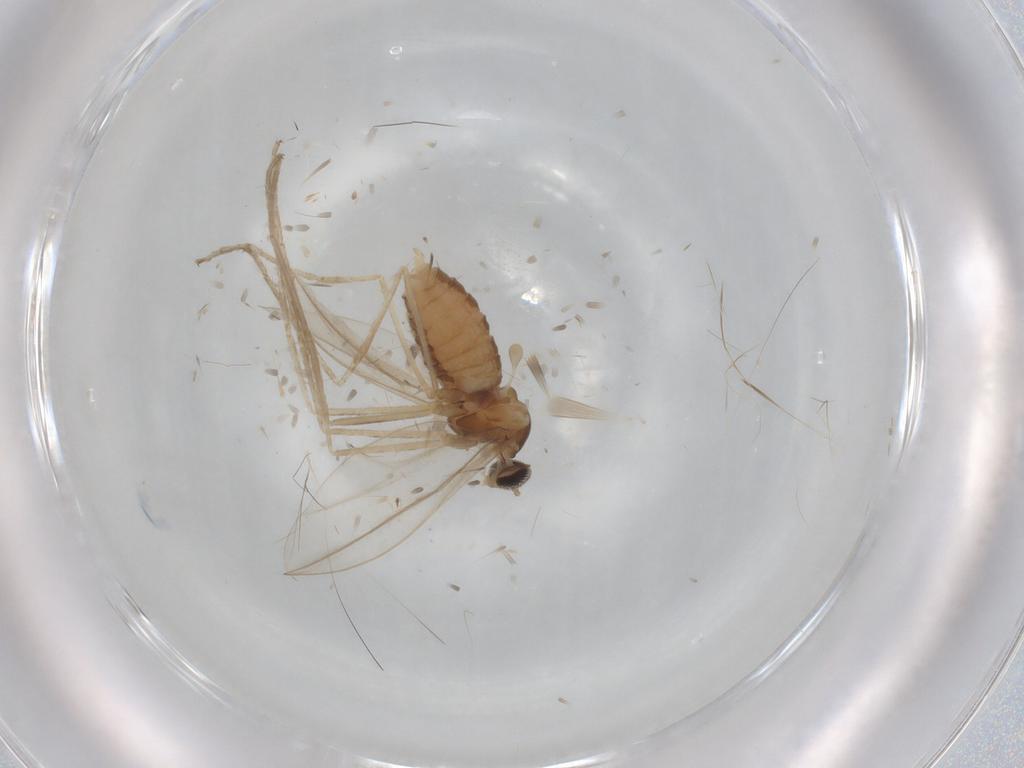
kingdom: Animalia
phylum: Arthropoda
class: Insecta
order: Diptera
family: Cecidomyiidae
